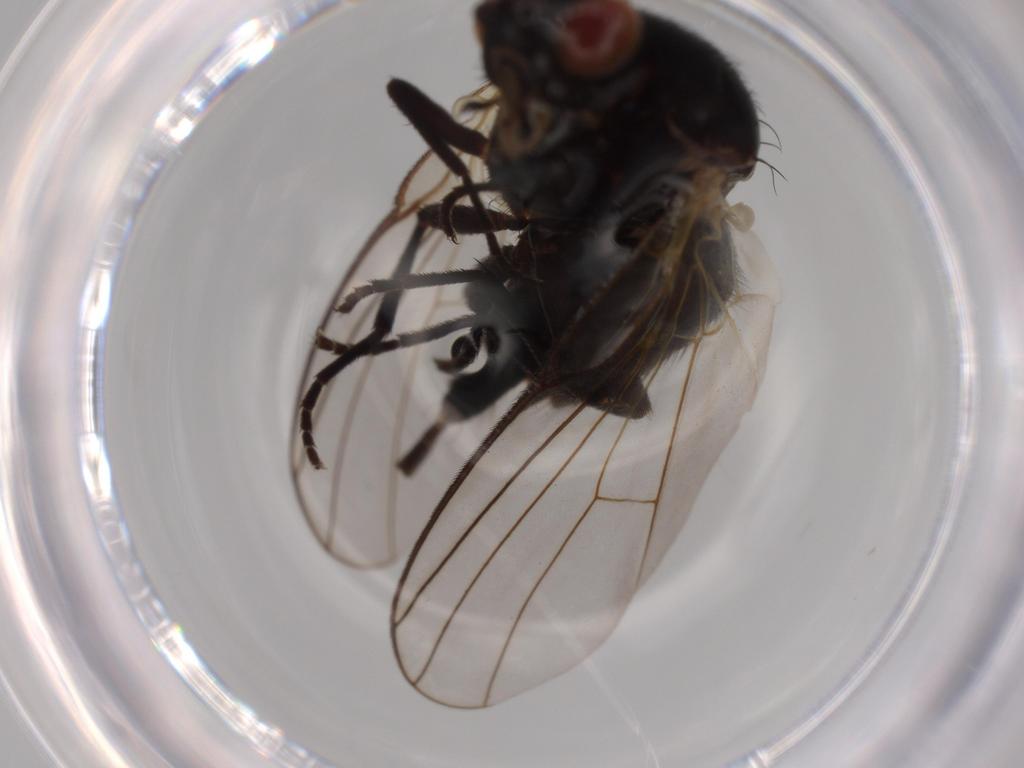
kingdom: Animalia
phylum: Arthropoda
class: Insecta
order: Diptera
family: Agromyzidae
